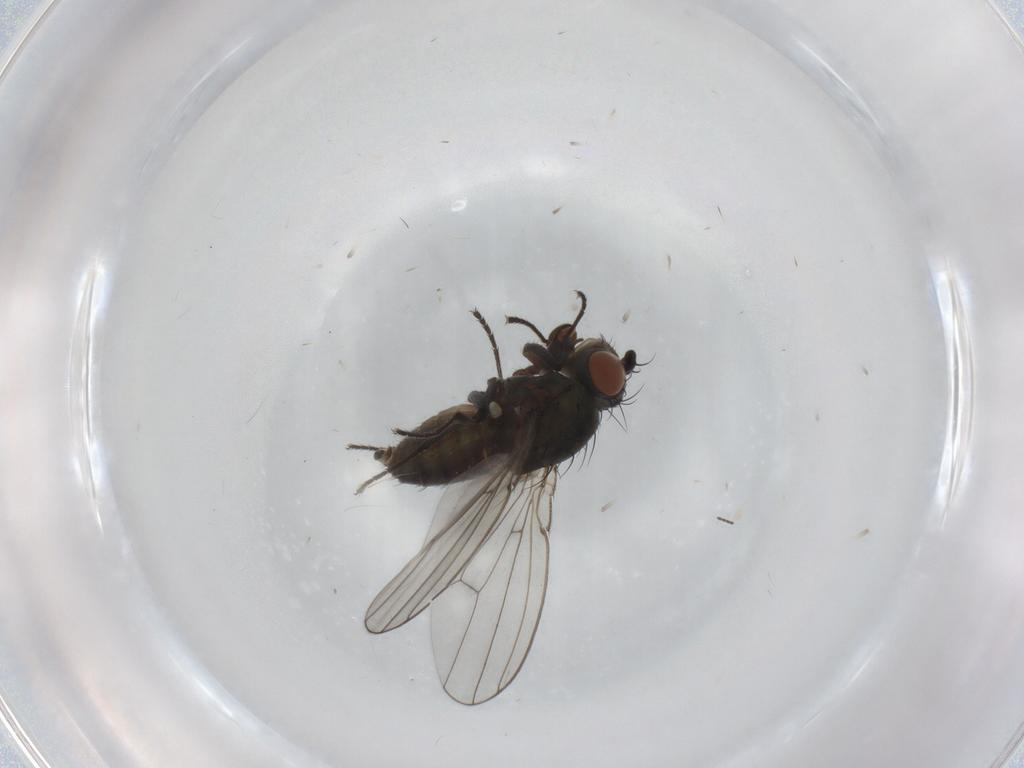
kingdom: Animalia
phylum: Arthropoda
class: Insecta
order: Diptera
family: Ephydridae
